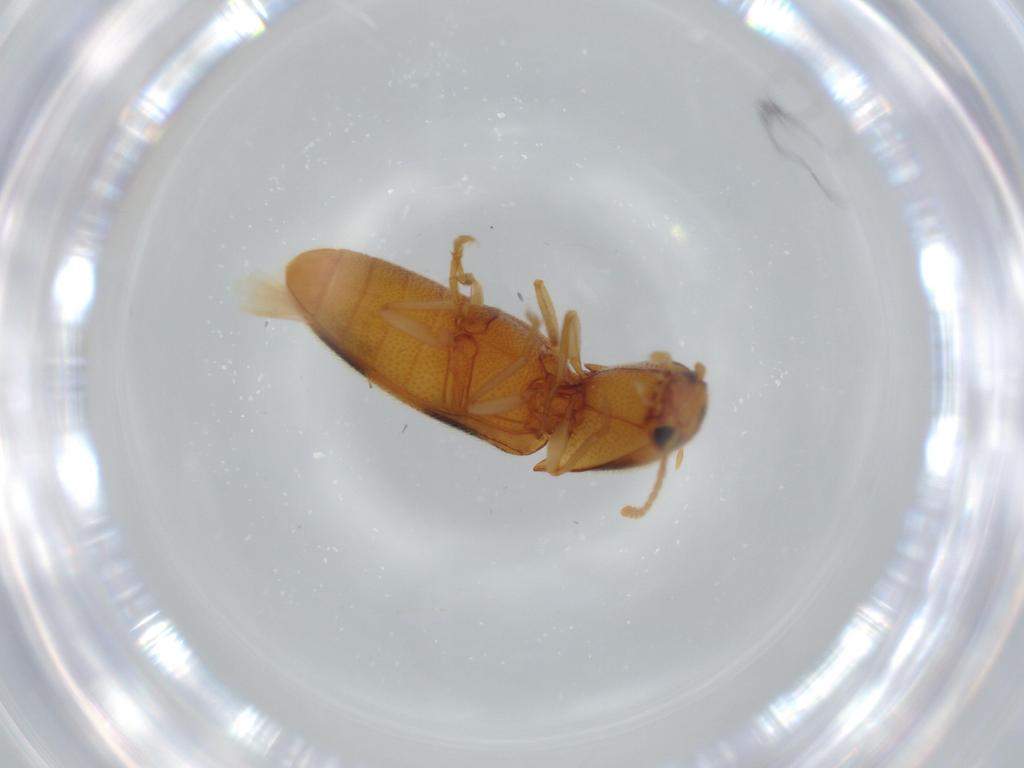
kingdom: Animalia
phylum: Arthropoda
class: Insecta
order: Coleoptera
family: Elateridae
